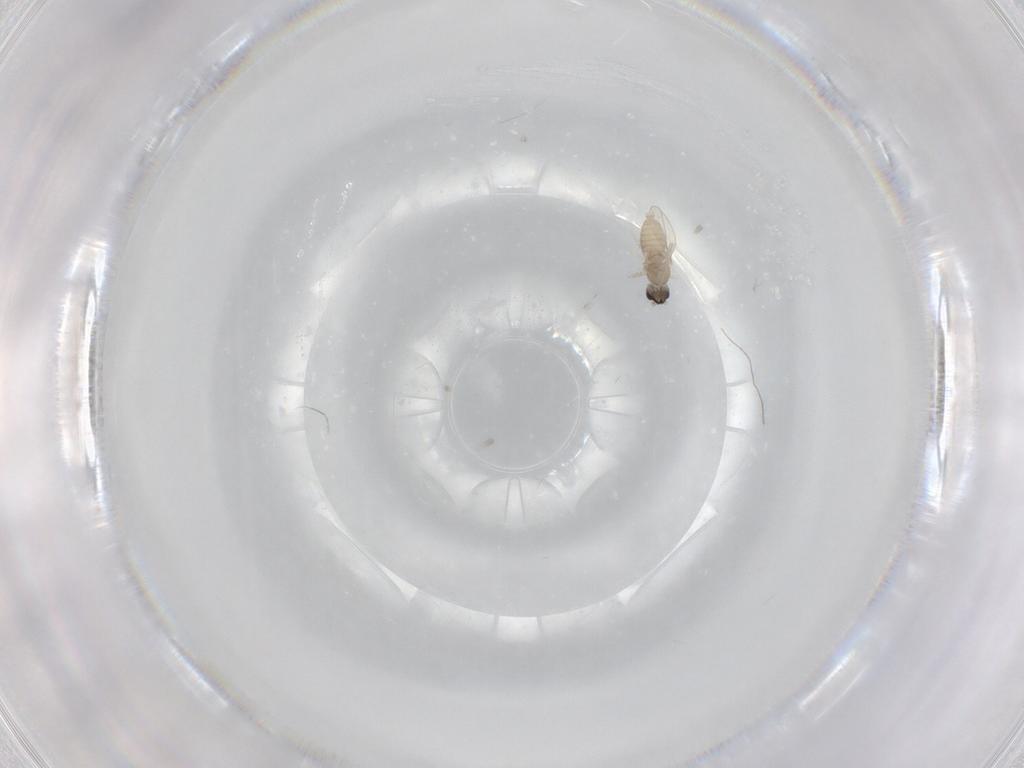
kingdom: Animalia
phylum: Arthropoda
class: Insecta
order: Diptera
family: Cecidomyiidae
